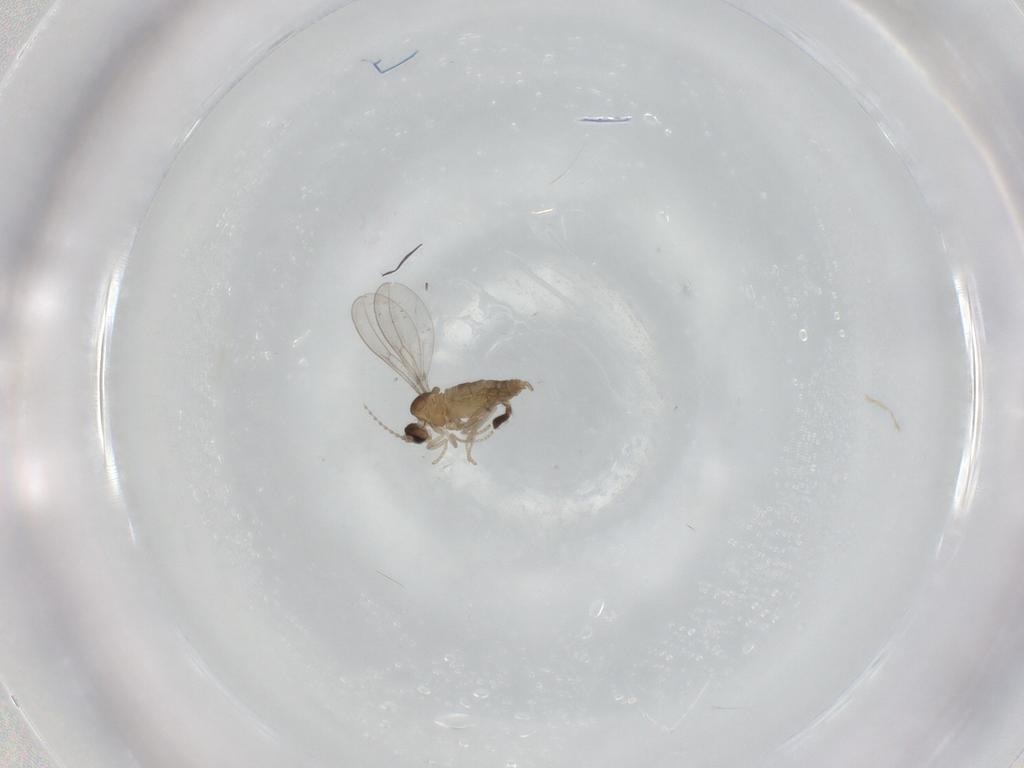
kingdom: Animalia
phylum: Arthropoda
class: Insecta
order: Diptera
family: Cecidomyiidae
